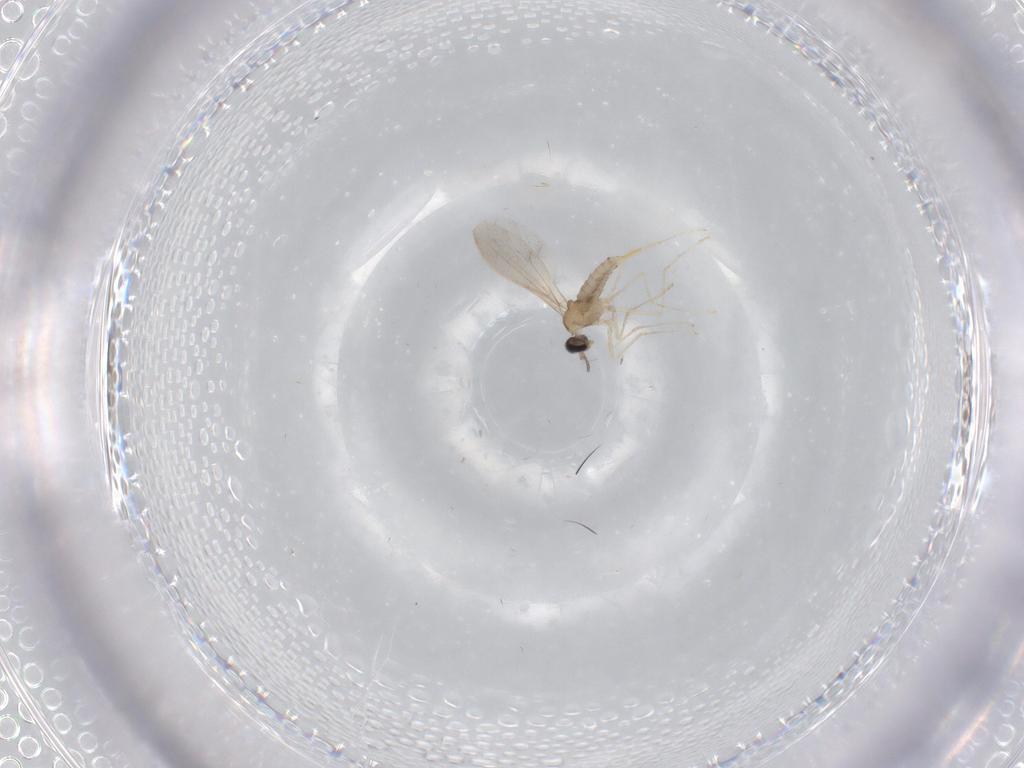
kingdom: Animalia
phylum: Arthropoda
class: Insecta
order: Diptera
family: Cecidomyiidae
